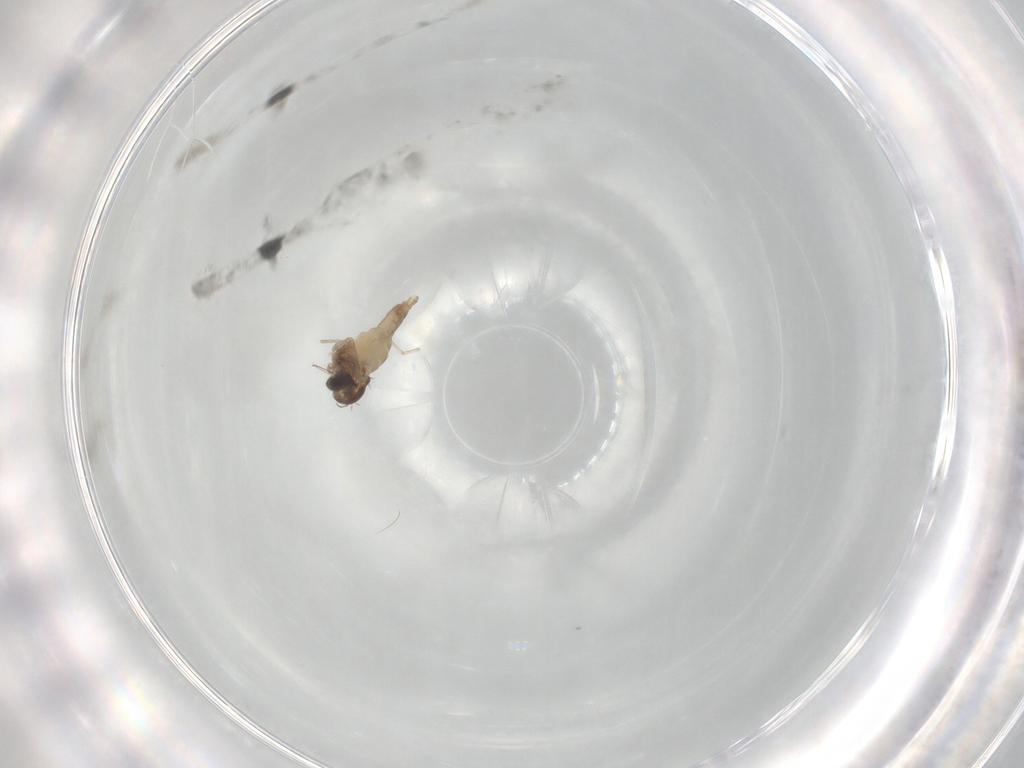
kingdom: Animalia
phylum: Arthropoda
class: Insecta
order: Diptera
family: Cecidomyiidae
